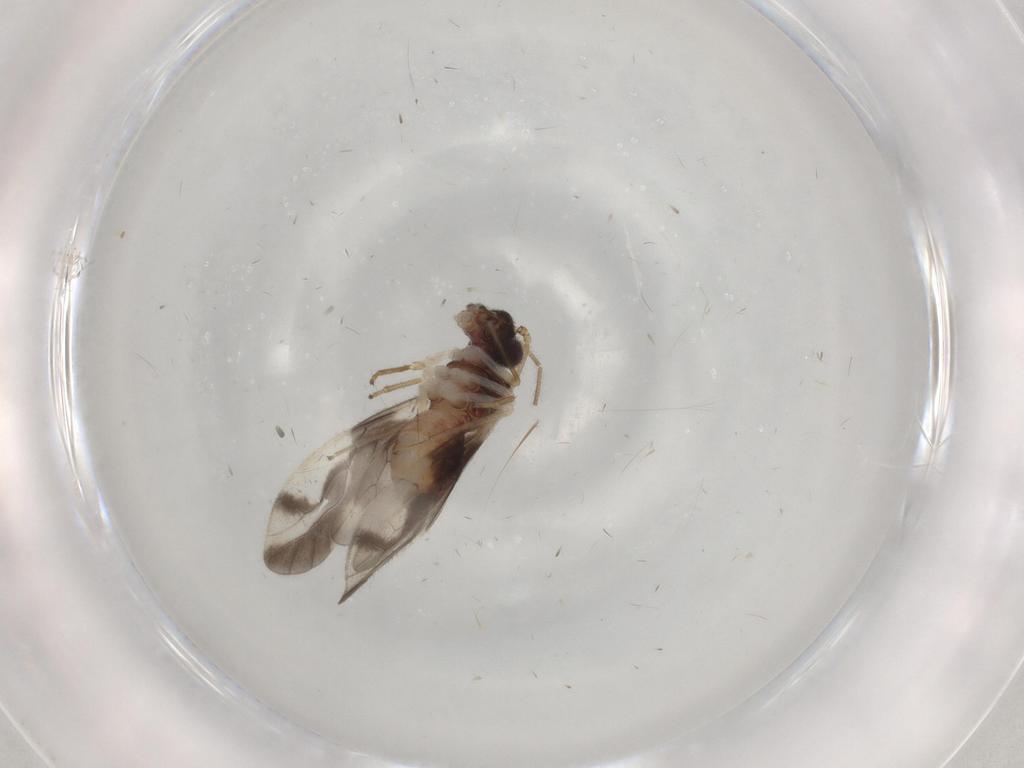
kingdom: Animalia
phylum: Arthropoda
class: Insecta
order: Psocodea
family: Caeciliusidae
